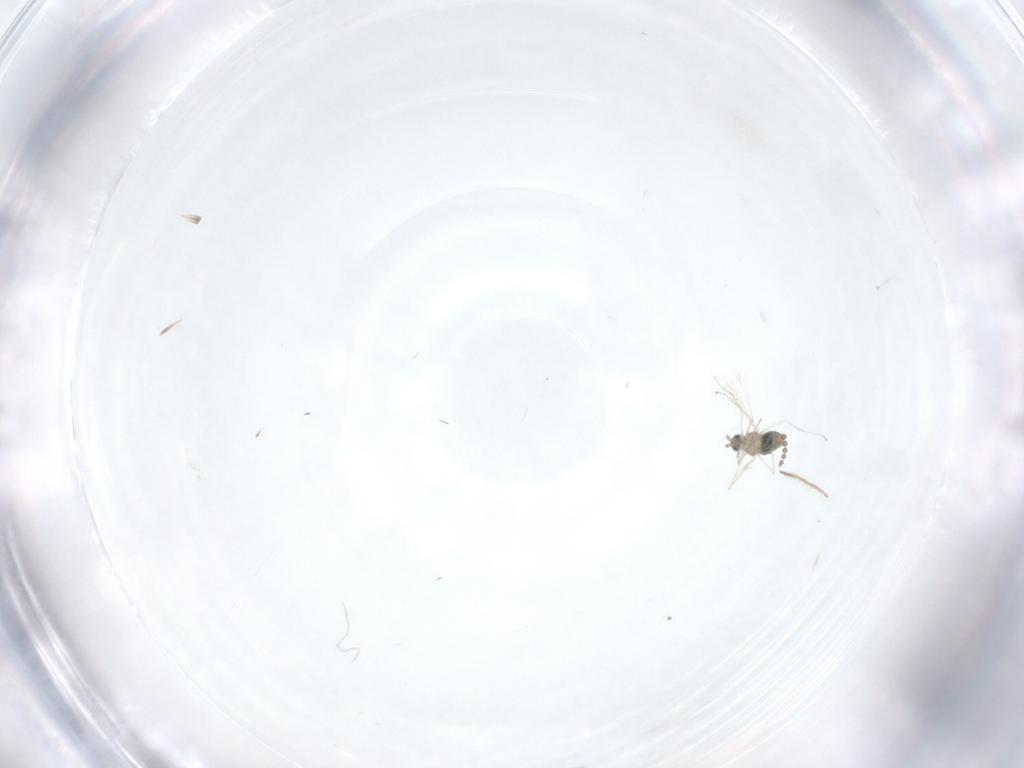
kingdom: Animalia
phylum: Arthropoda
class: Insecta
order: Diptera
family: Psychodidae
